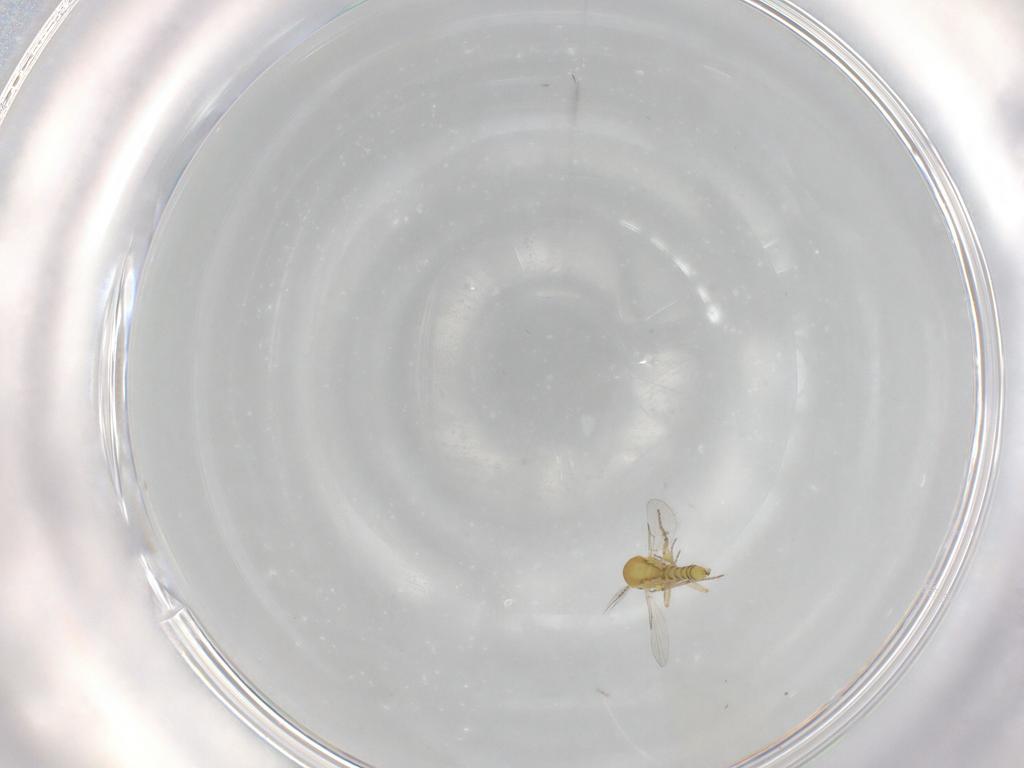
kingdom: Animalia
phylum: Arthropoda
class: Insecta
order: Diptera
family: Ceratopogonidae
